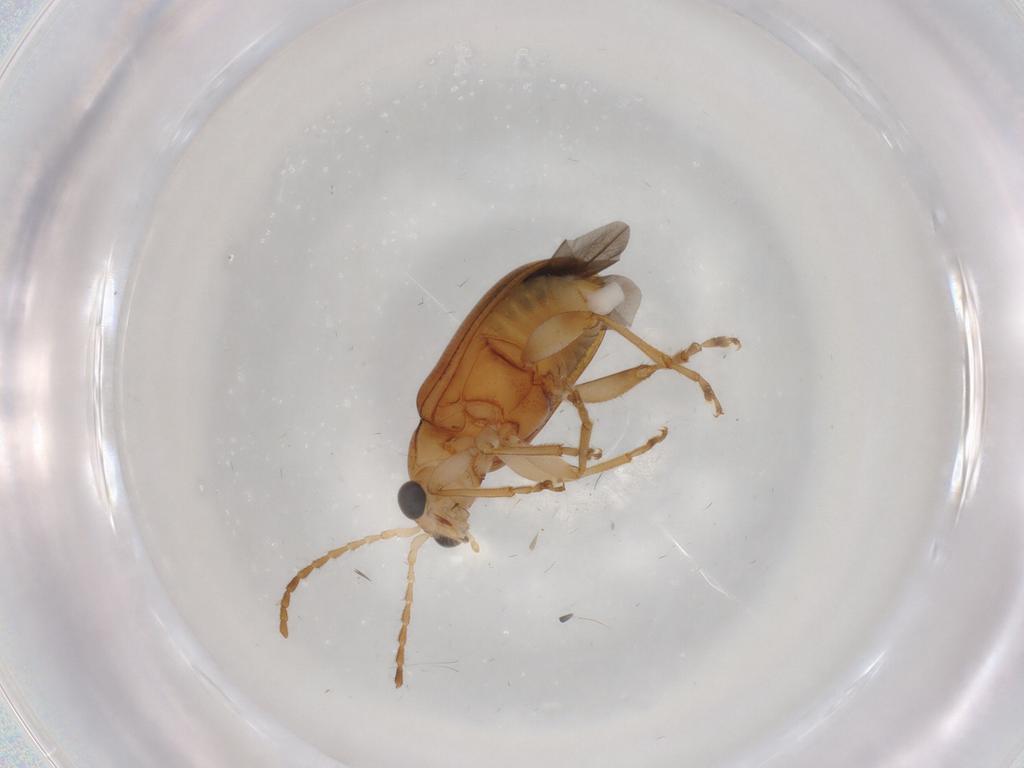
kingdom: Animalia
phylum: Arthropoda
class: Insecta
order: Coleoptera
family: Chrysomelidae
